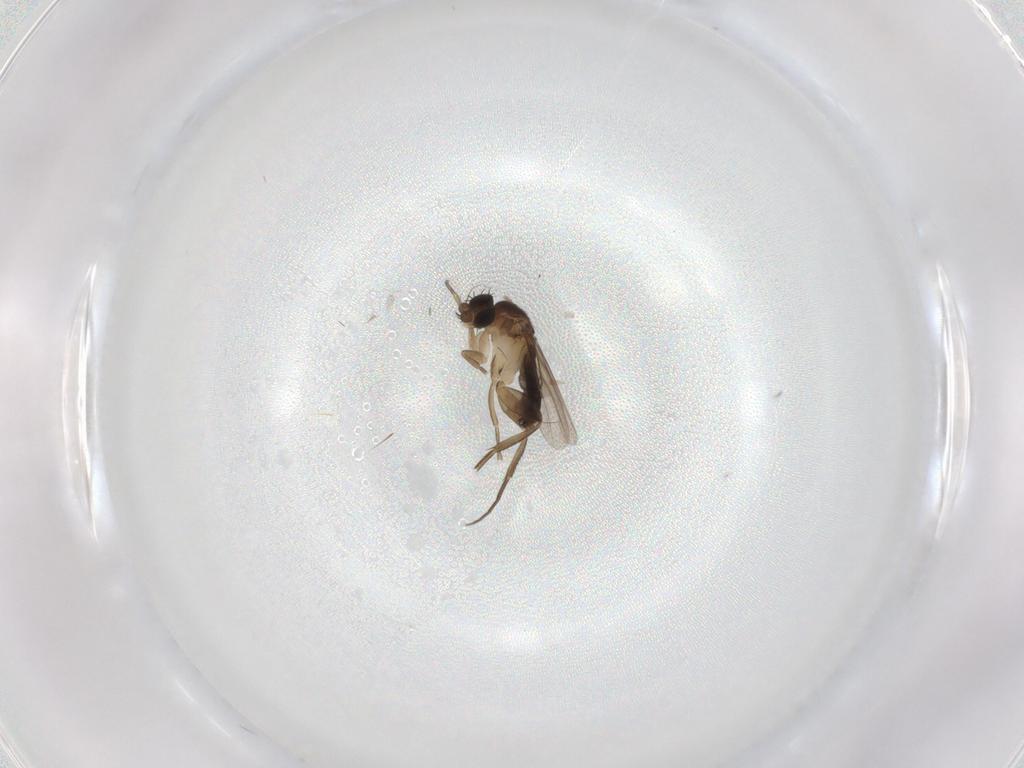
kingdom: Animalia
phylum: Arthropoda
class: Insecta
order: Diptera
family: Phoridae
